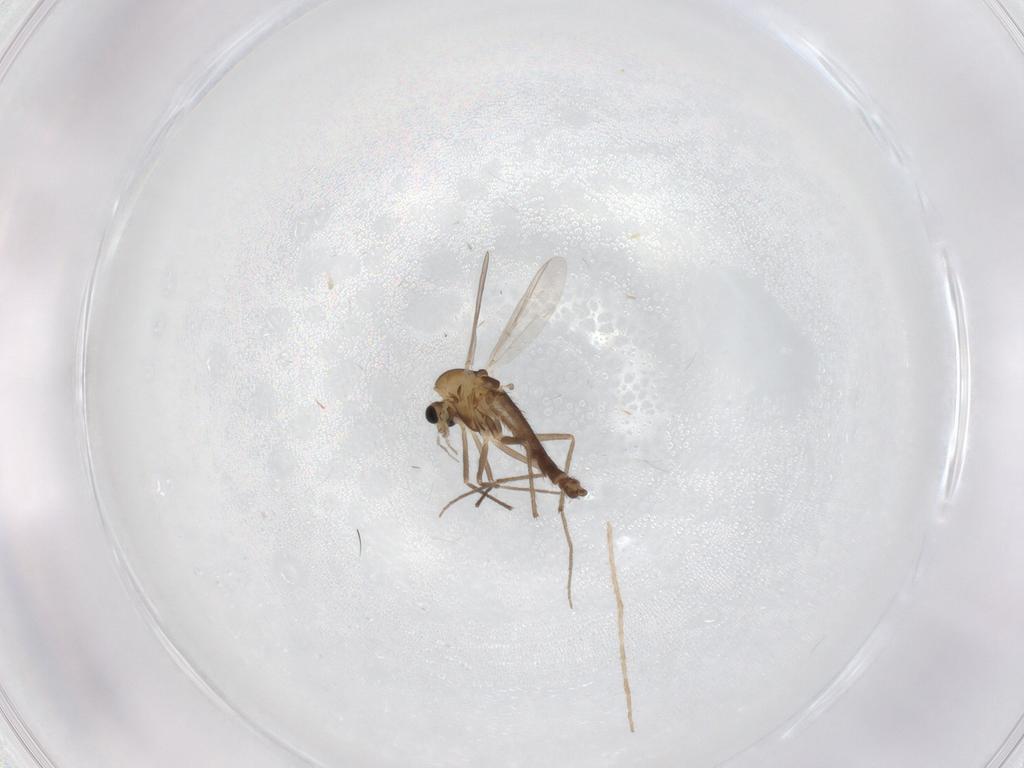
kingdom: Animalia
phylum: Arthropoda
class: Insecta
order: Diptera
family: Chironomidae
